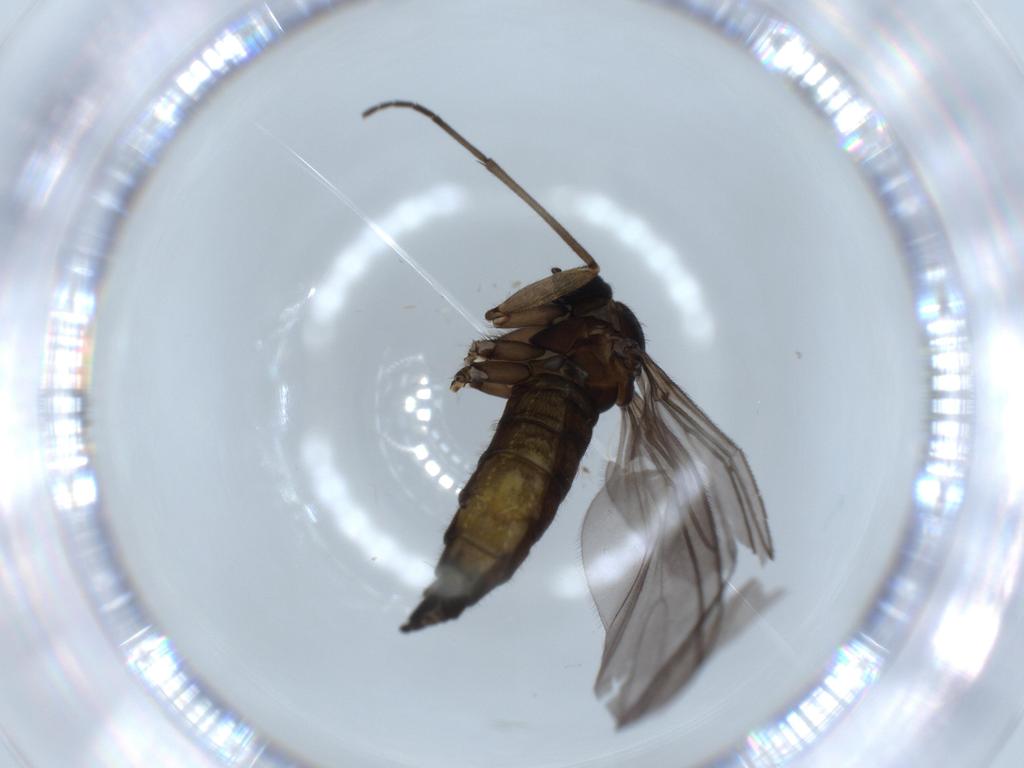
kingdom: Animalia
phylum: Arthropoda
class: Insecta
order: Diptera
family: Sciaridae
